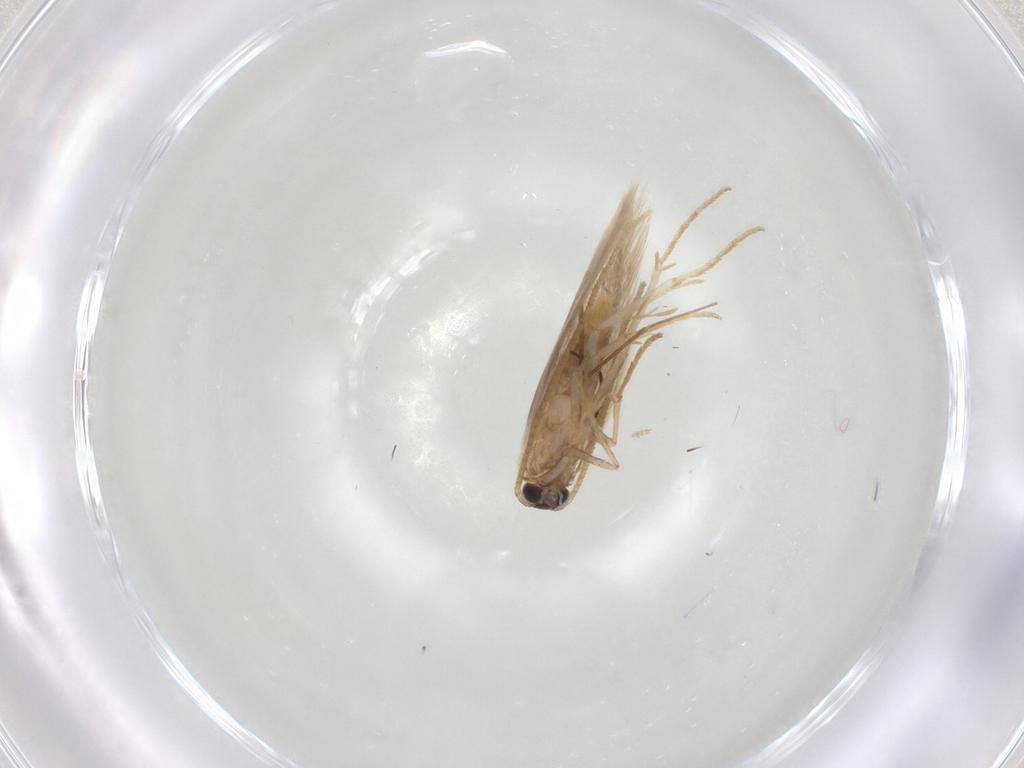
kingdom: Animalia
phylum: Arthropoda
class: Insecta
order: Lepidoptera
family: Tineidae
